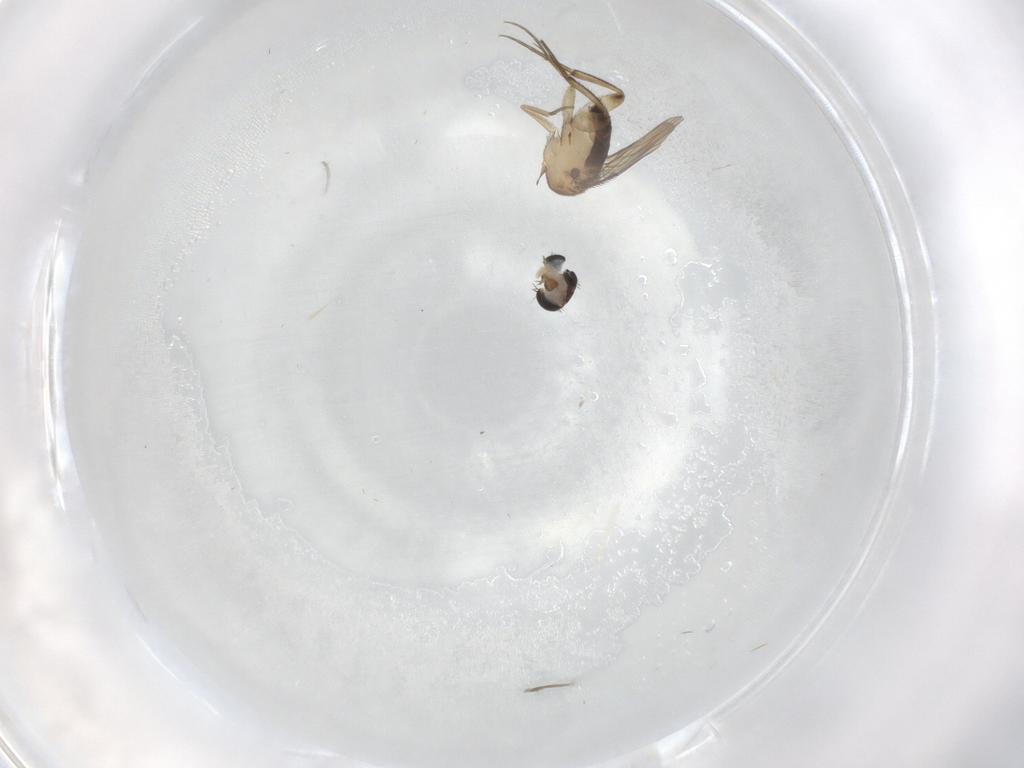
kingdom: Animalia
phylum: Arthropoda
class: Insecta
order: Diptera
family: Phoridae
